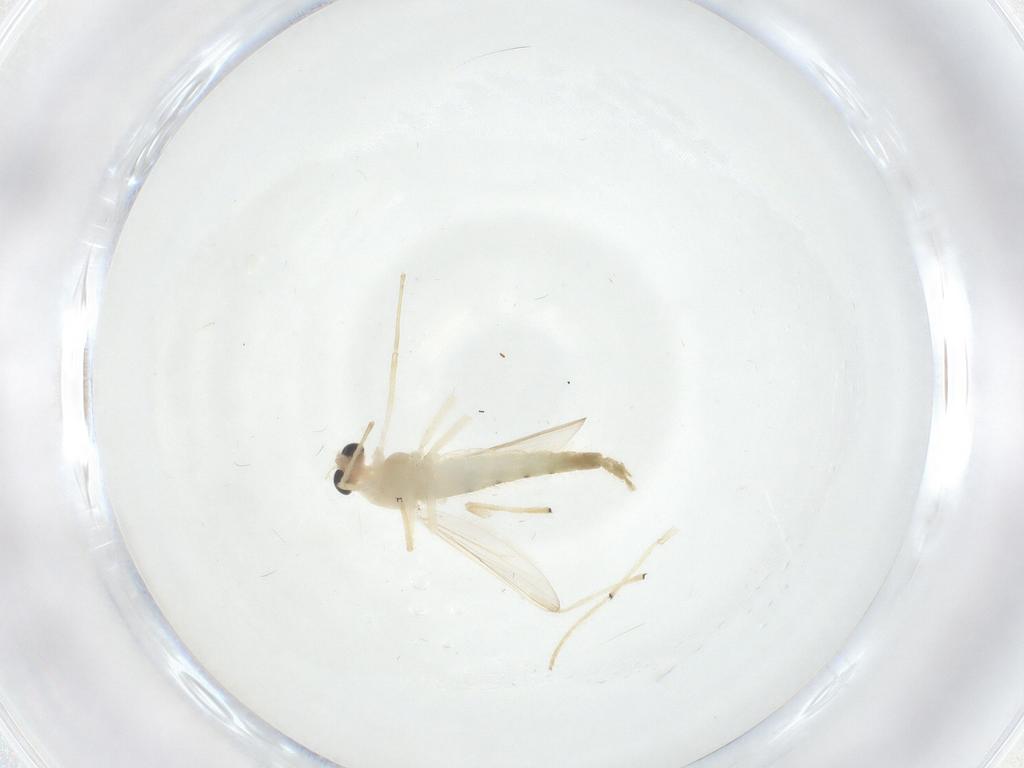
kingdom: Animalia
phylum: Arthropoda
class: Insecta
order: Diptera
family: Chironomidae
